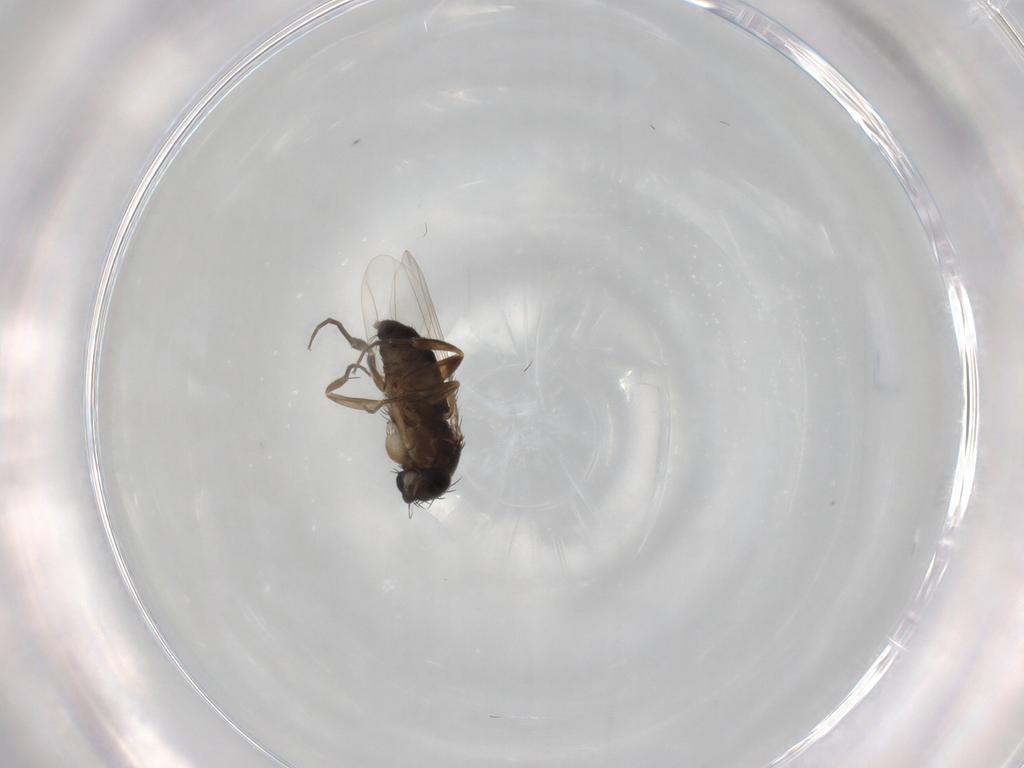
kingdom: Animalia
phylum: Arthropoda
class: Insecta
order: Diptera
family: Phoridae
